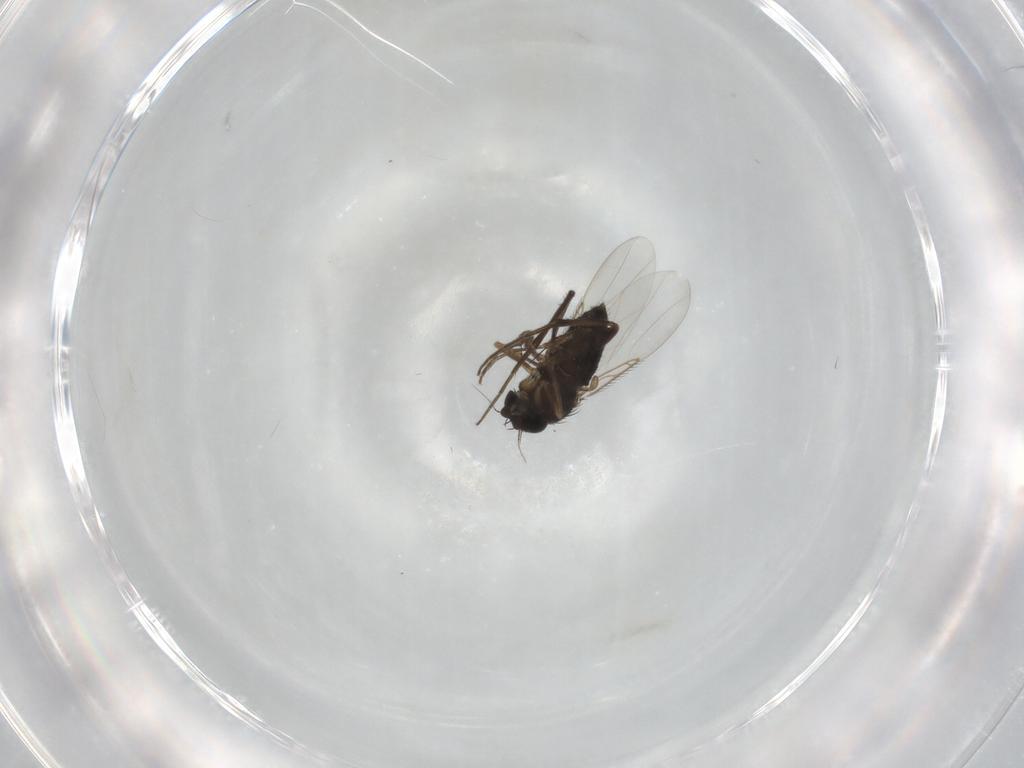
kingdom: Animalia
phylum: Arthropoda
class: Insecta
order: Diptera
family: Phoridae
